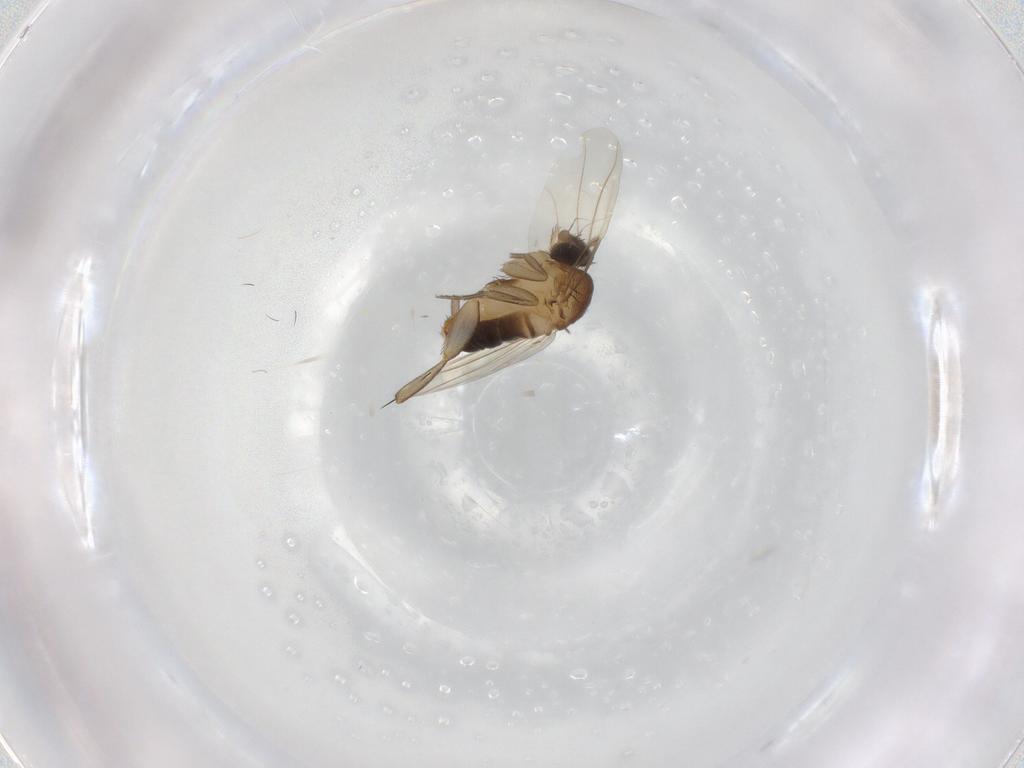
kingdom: Animalia
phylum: Arthropoda
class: Insecta
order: Diptera
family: Phoridae
